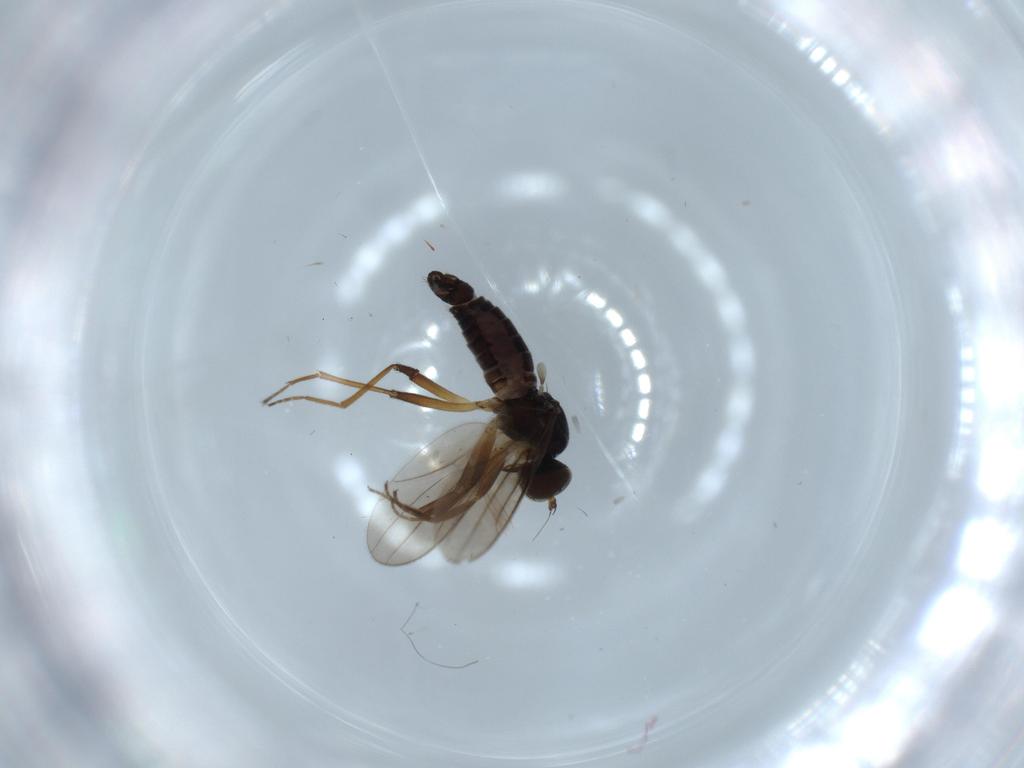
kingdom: Animalia
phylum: Arthropoda
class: Insecta
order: Diptera
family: Hybotidae
